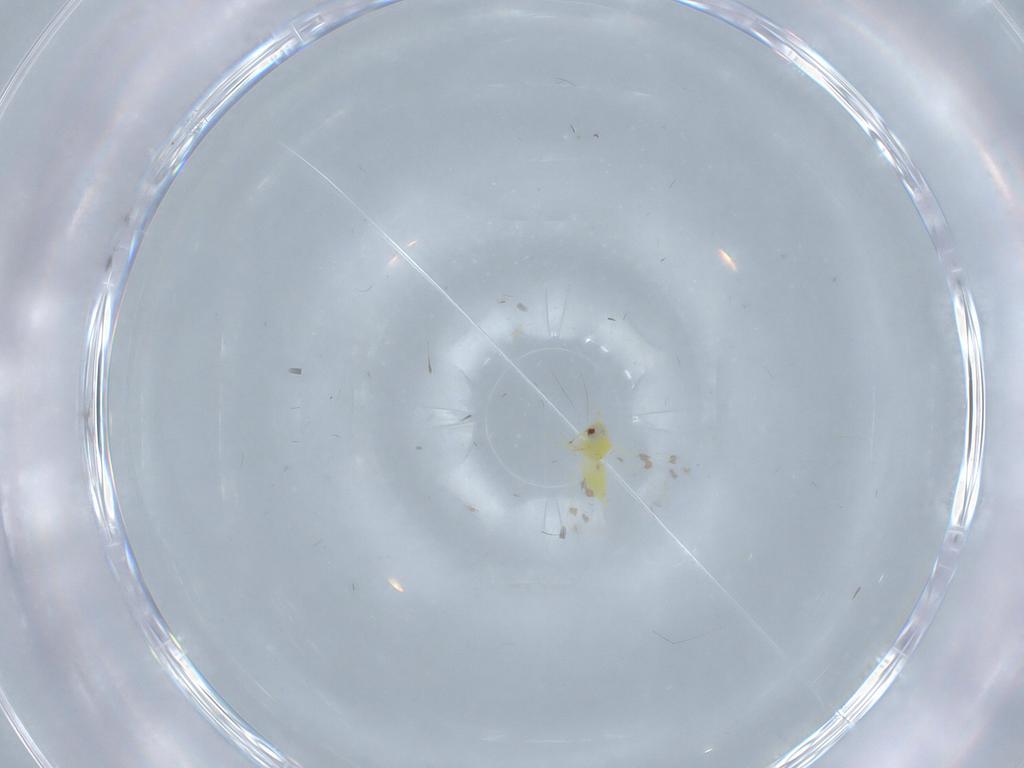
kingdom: Animalia
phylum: Arthropoda
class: Insecta
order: Hemiptera
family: Aleyrodidae
